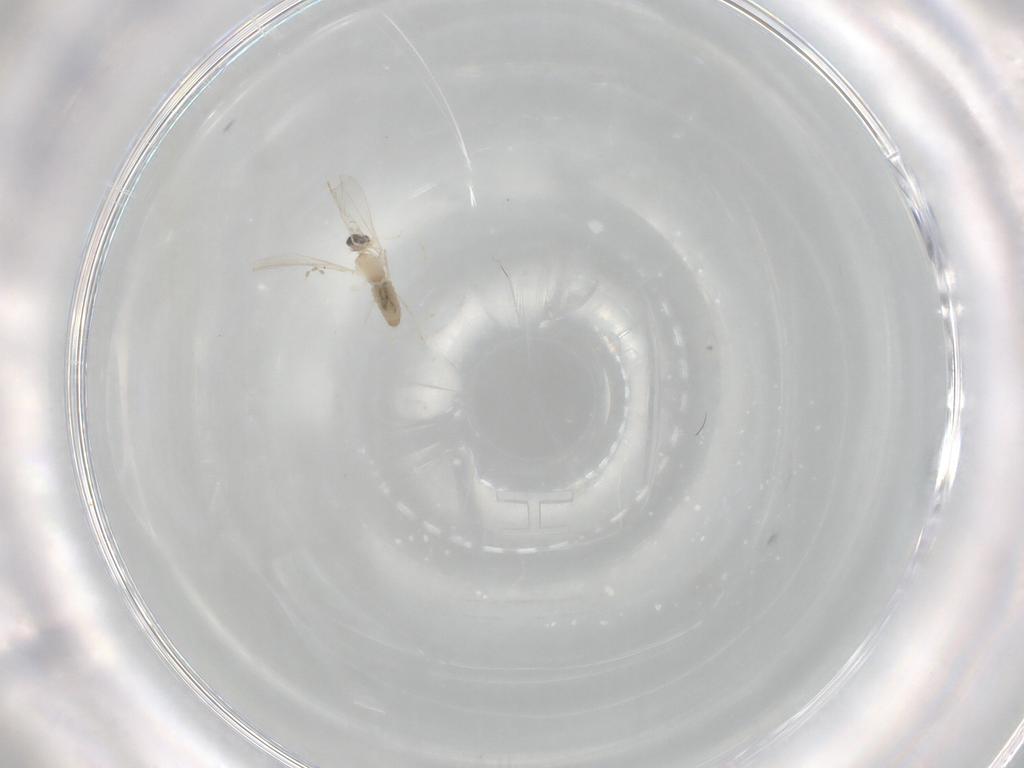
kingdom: Animalia
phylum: Arthropoda
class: Insecta
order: Diptera
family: Cecidomyiidae
